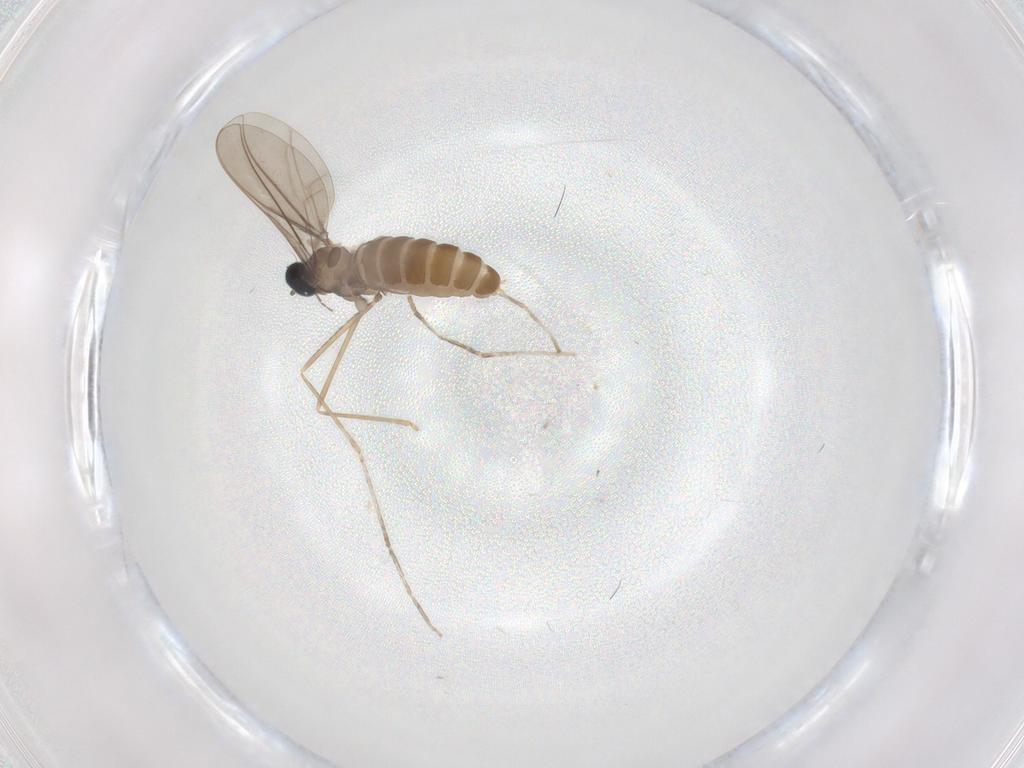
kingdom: Animalia
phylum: Arthropoda
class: Insecta
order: Diptera
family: Cecidomyiidae
